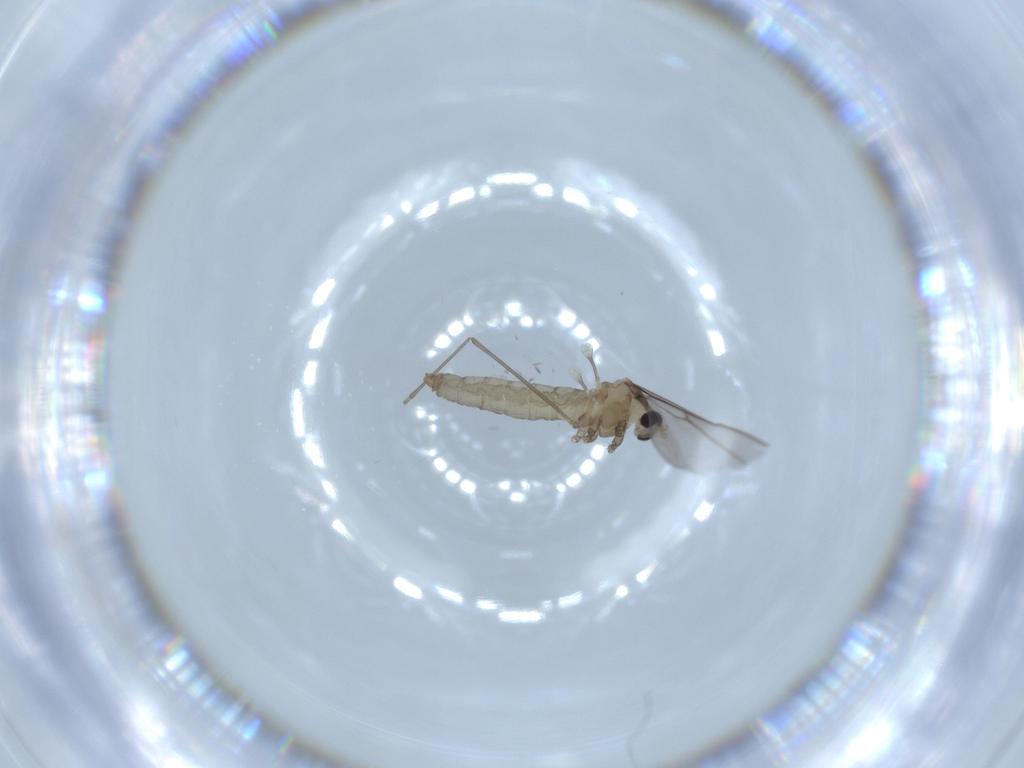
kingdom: Animalia
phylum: Arthropoda
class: Insecta
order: Diptera
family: Cecidomyiidae
